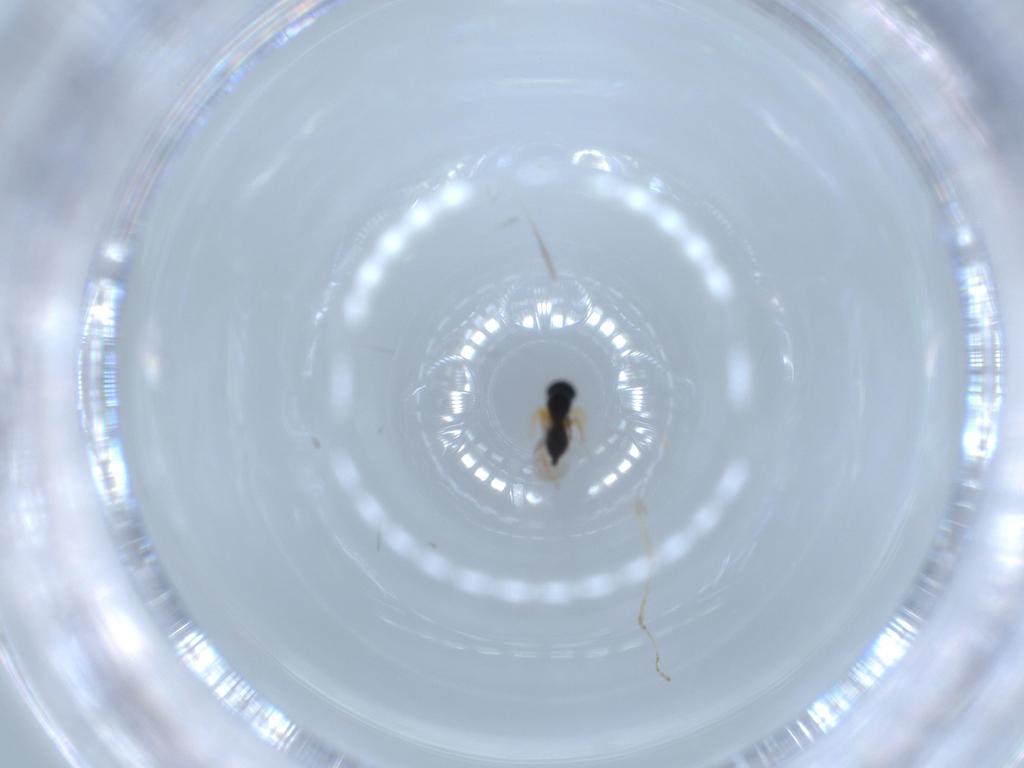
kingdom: Animalia
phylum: Arthropoda
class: Insecta
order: Hymenoptera
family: Platygastridae
